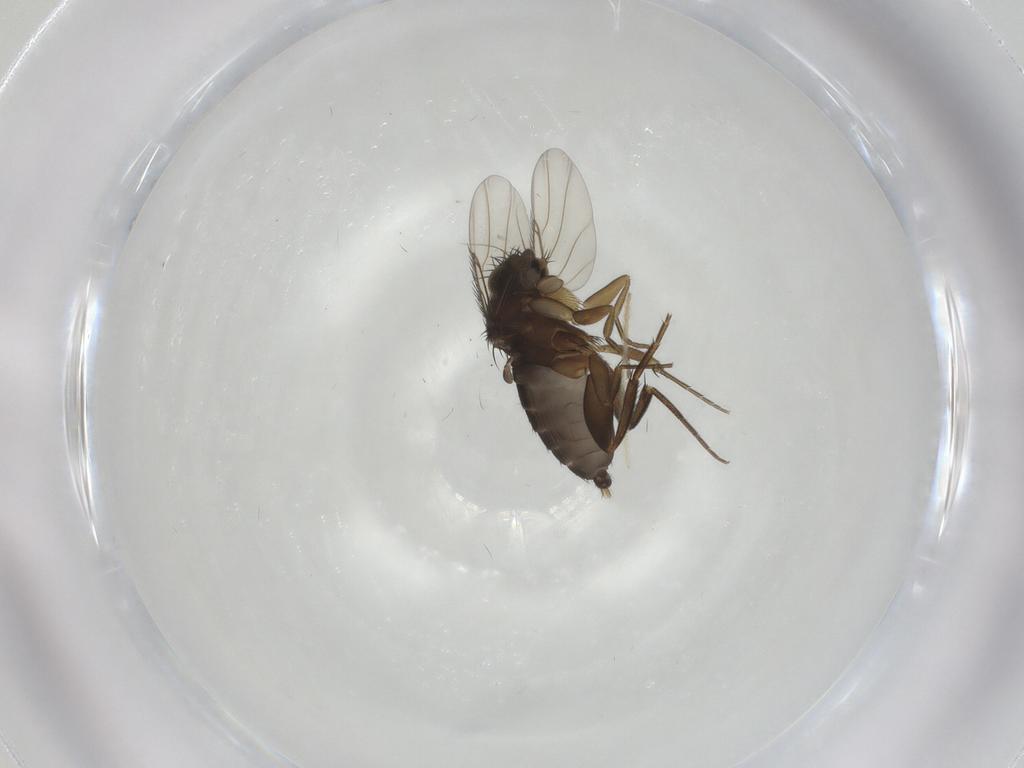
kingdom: Animalia
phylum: Arthropoda
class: Insecta
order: Diptera
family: Phoridae
